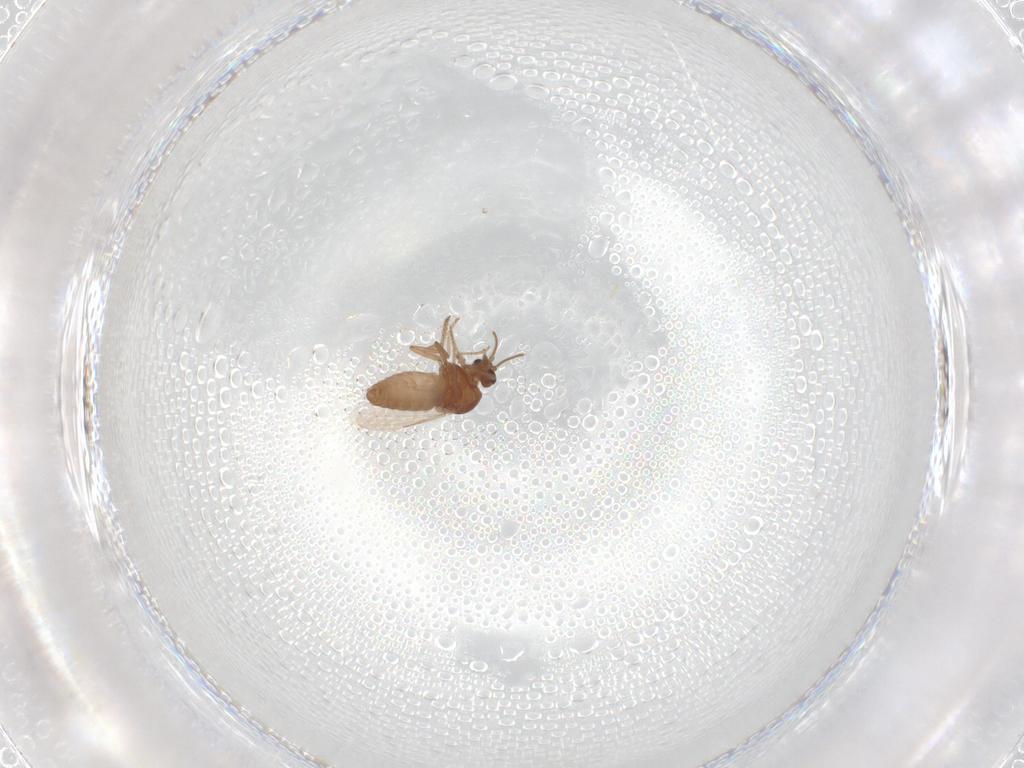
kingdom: Animalia
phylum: Arthropoda
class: Insecta
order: Diptera
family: Ceratopogonidae
